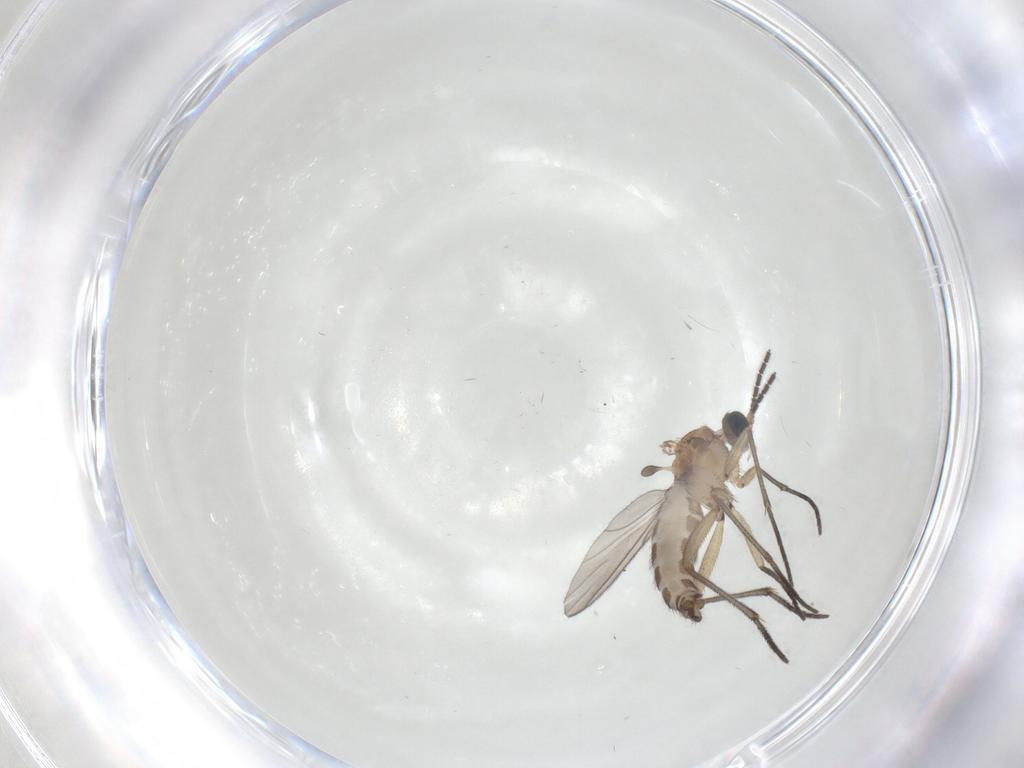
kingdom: Animalia
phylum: Arthropoda
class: Insecta
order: Diptera
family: Sciaridae
